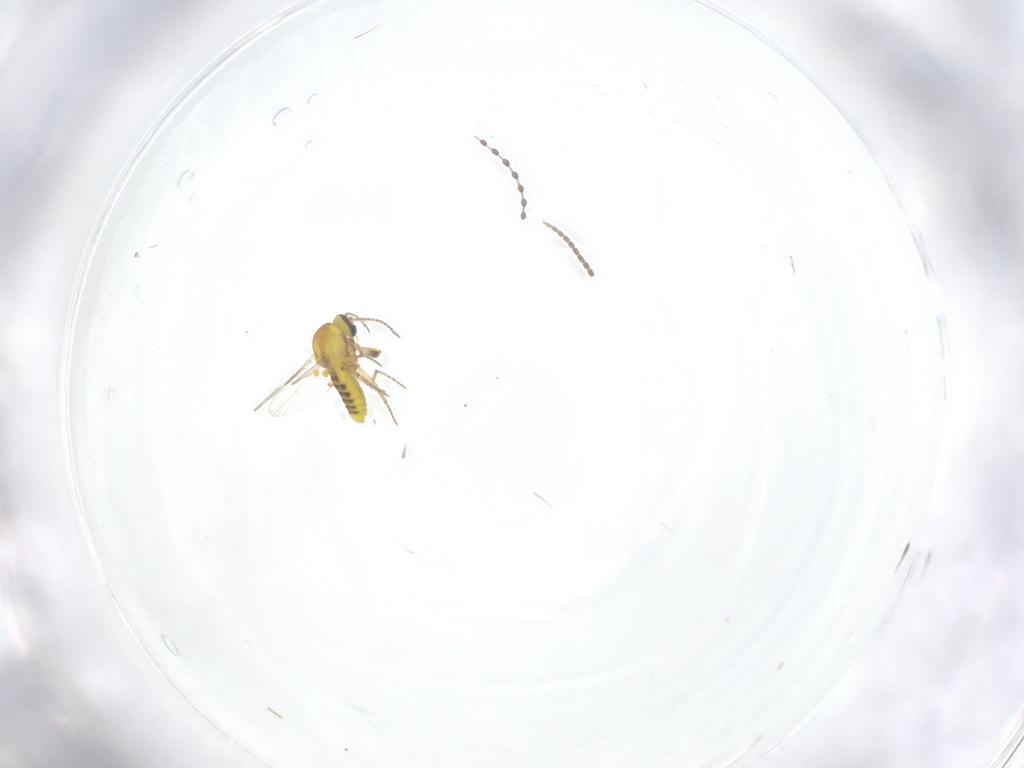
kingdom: Animalia
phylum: Arthropoda
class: Insecta
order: Diptera
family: Ceratopogonidae
